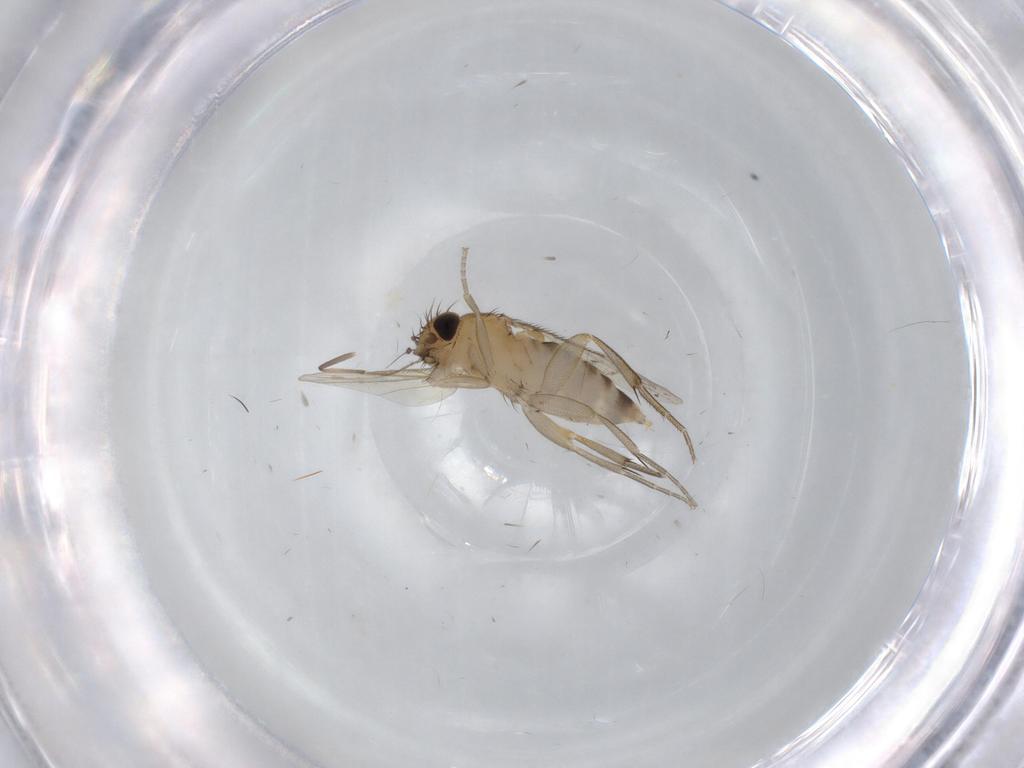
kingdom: Animalia
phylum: Arthropoda
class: Insecta
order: Diptera
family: Phoridae
